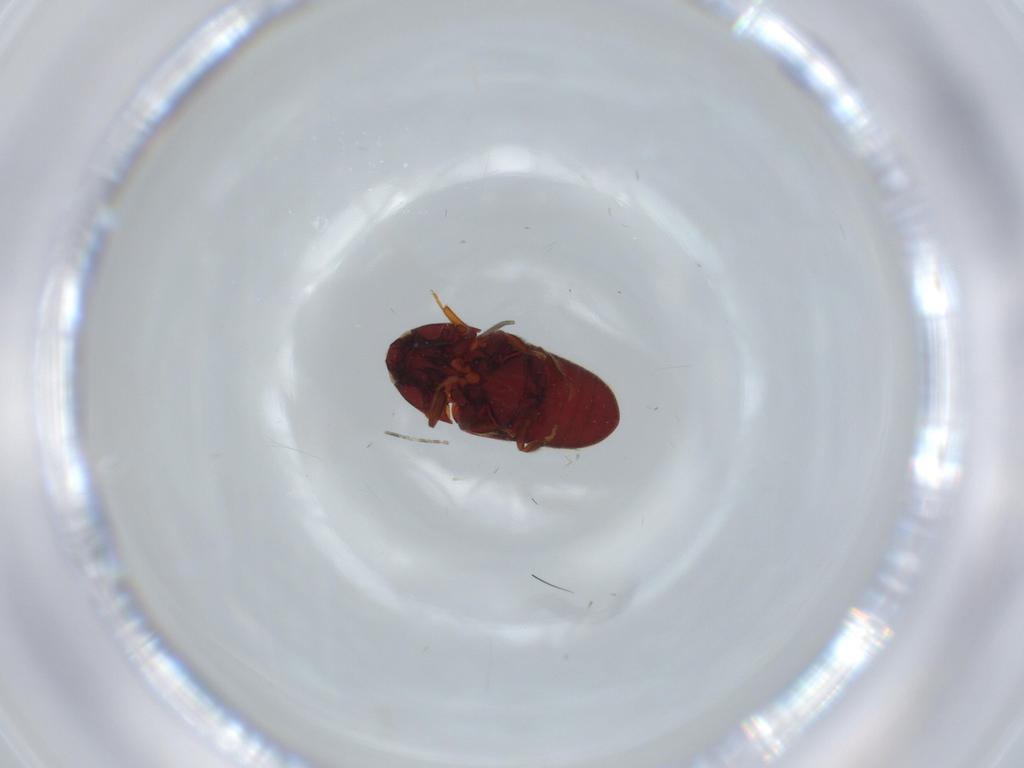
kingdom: Animalia
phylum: Arthropoda
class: Insecta
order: Coleoptera
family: Throscidae
